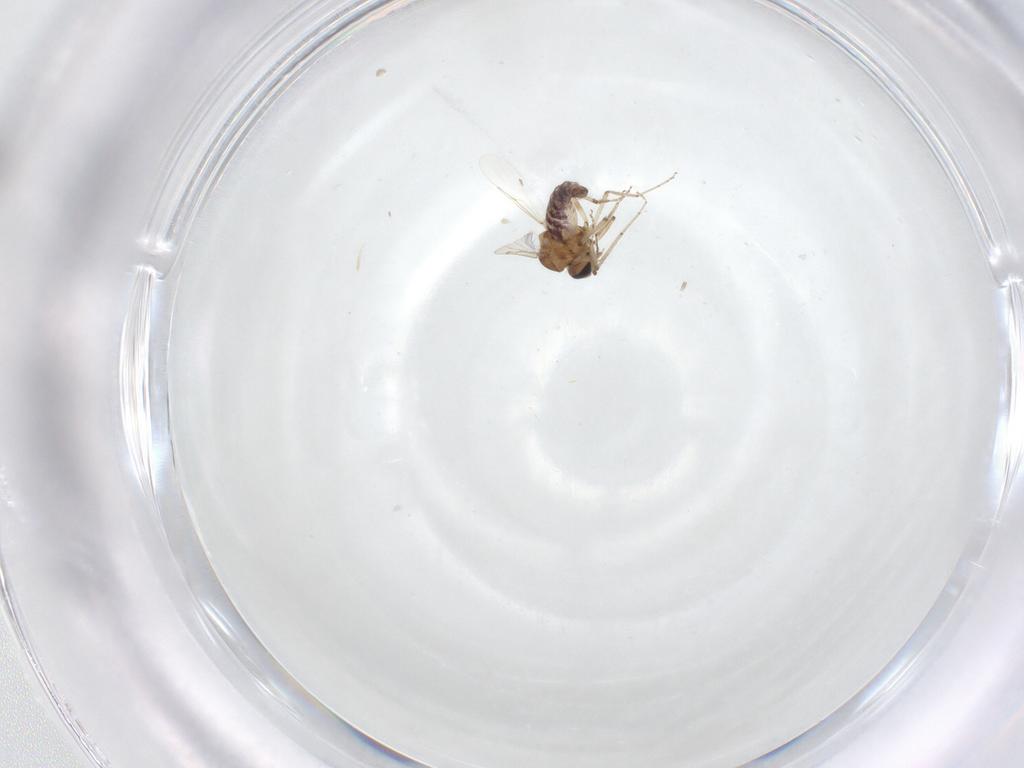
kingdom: Animalia
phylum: Arthropoda
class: Insecta
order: Diptera
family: Ceratopogonidae
